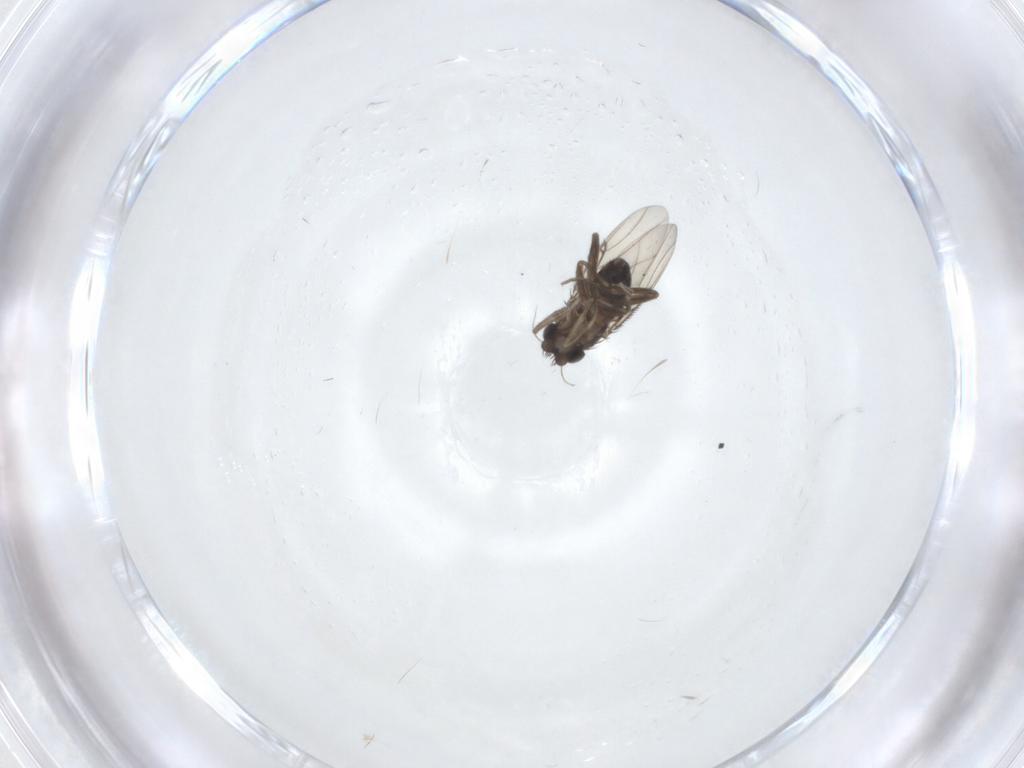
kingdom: Animalia
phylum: Arthropoda
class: Insecta
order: Diptera
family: Phoridae
